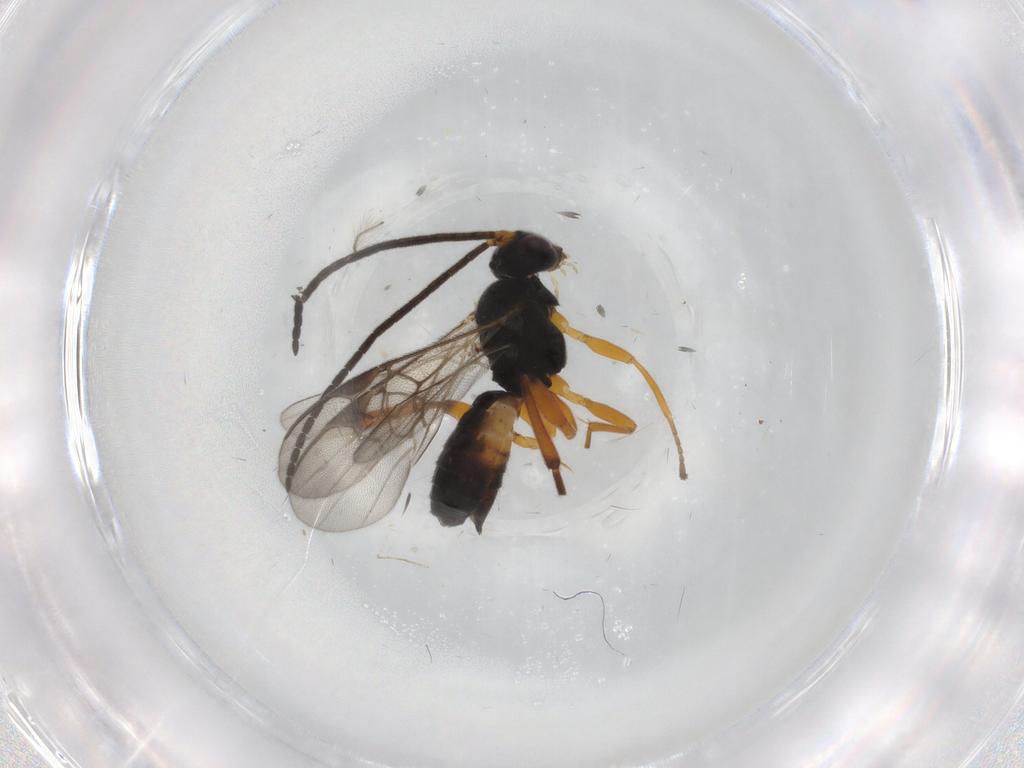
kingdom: Animalia
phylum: Arthropoda
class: Insecta
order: Hymenoptera
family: Braconidae
